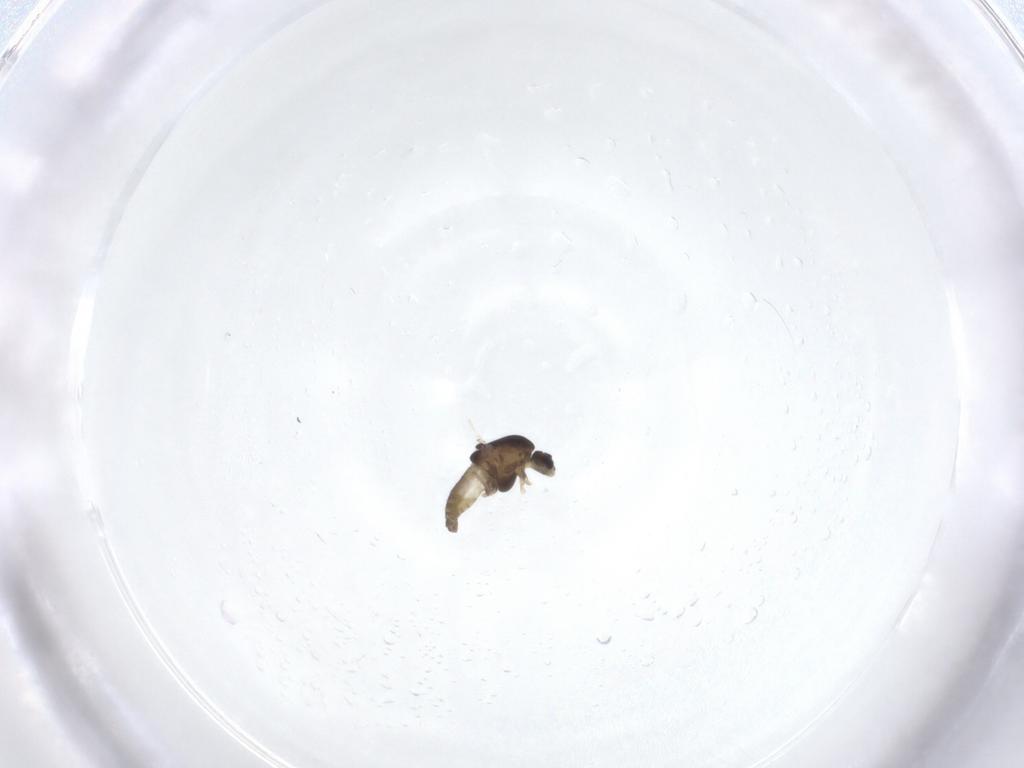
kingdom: Animalia
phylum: Arthropoda
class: Insecta
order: Diptera
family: Chironomidae
